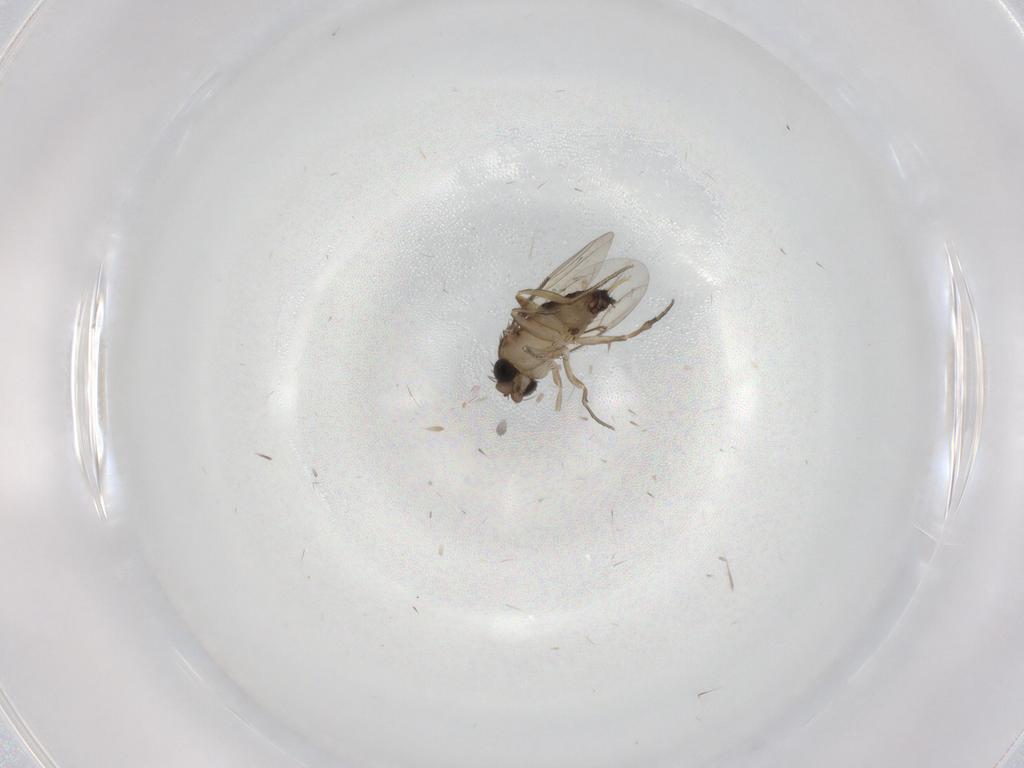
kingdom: Animalia
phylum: Arthropoda
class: Insecta
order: Diptera
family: Phoridae
